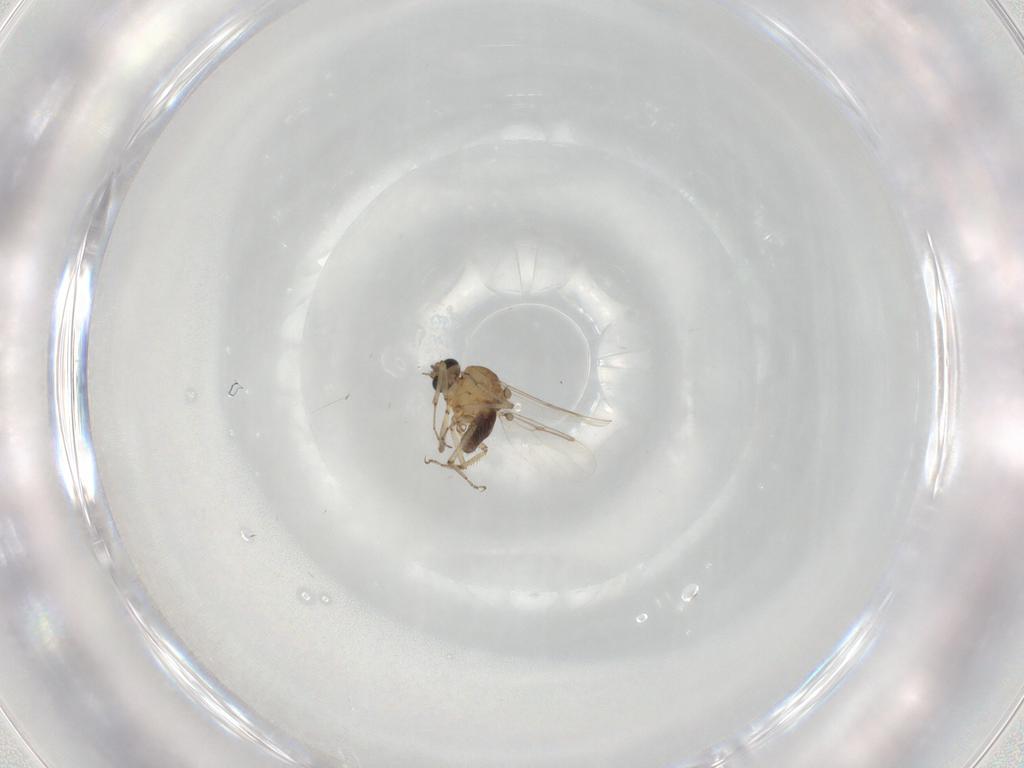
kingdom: Animalia
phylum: Arthropoda
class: Insecta
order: Diptera
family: Ceratopogonidae
